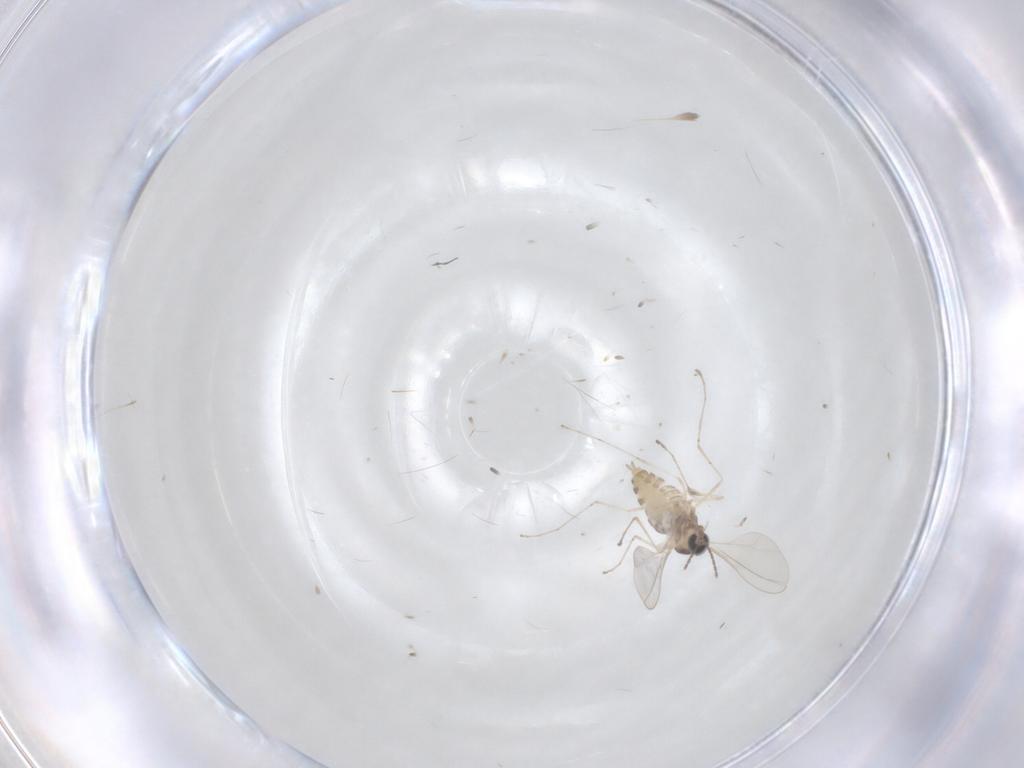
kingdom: Animalia
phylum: Arthropoda
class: Insecta
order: Diptera
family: Cecidomyiidae
